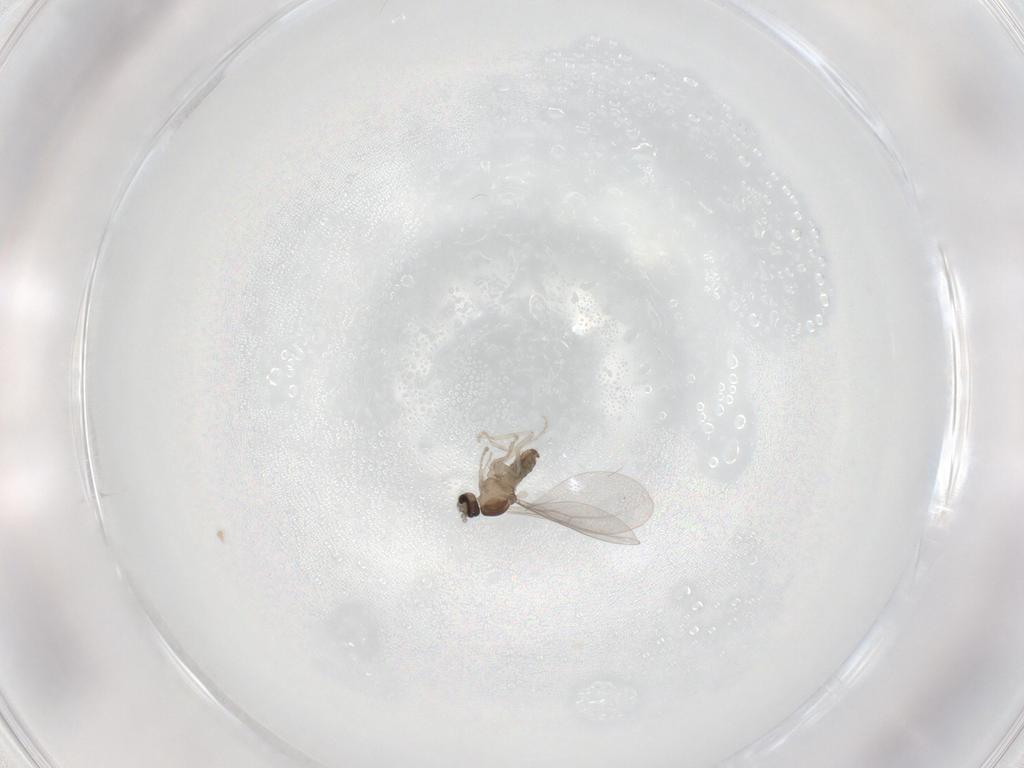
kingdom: Animalia
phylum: Arthropoda
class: Insecta
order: Diptera
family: Cecidomyiidae
